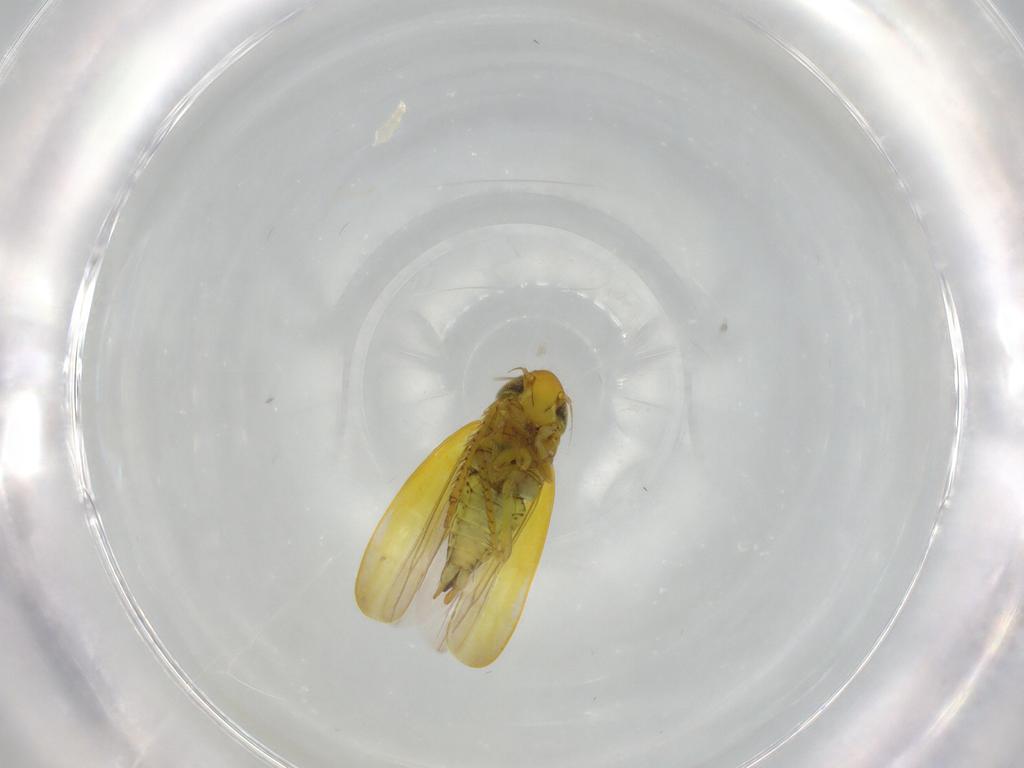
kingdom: Animalia
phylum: Arthropoda
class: Insecta
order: Hemiptera
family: Cicadellidae
